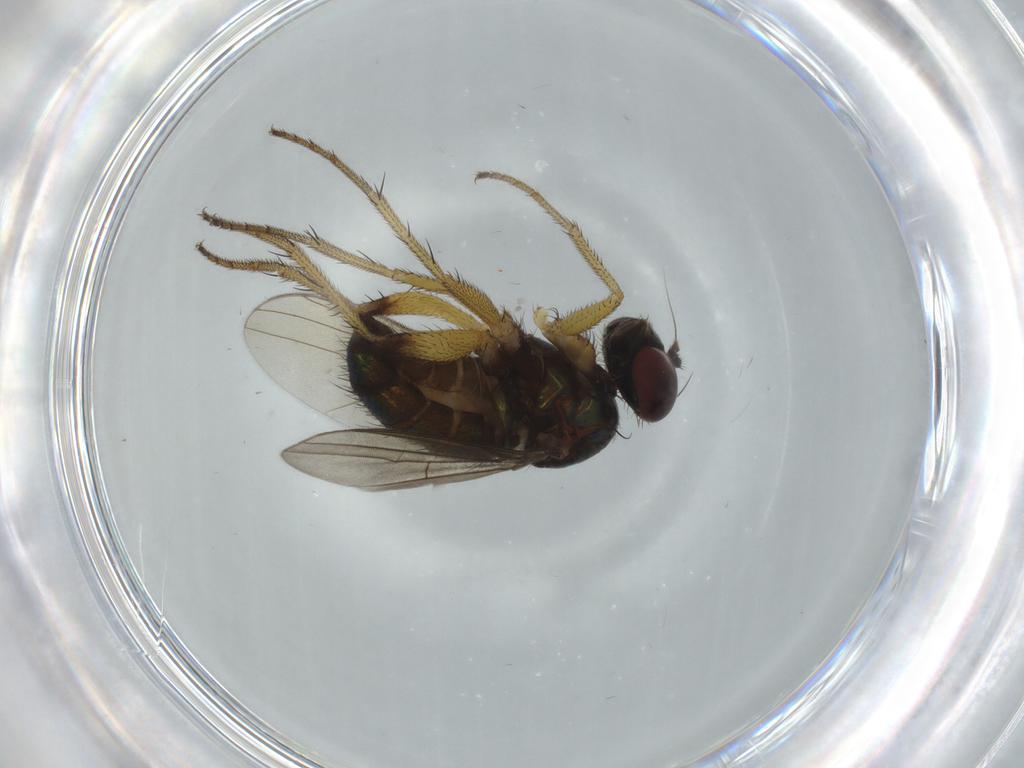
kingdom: Animalia
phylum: Arthropoda
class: Insecta
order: Diptera
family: Dolichopodidae
